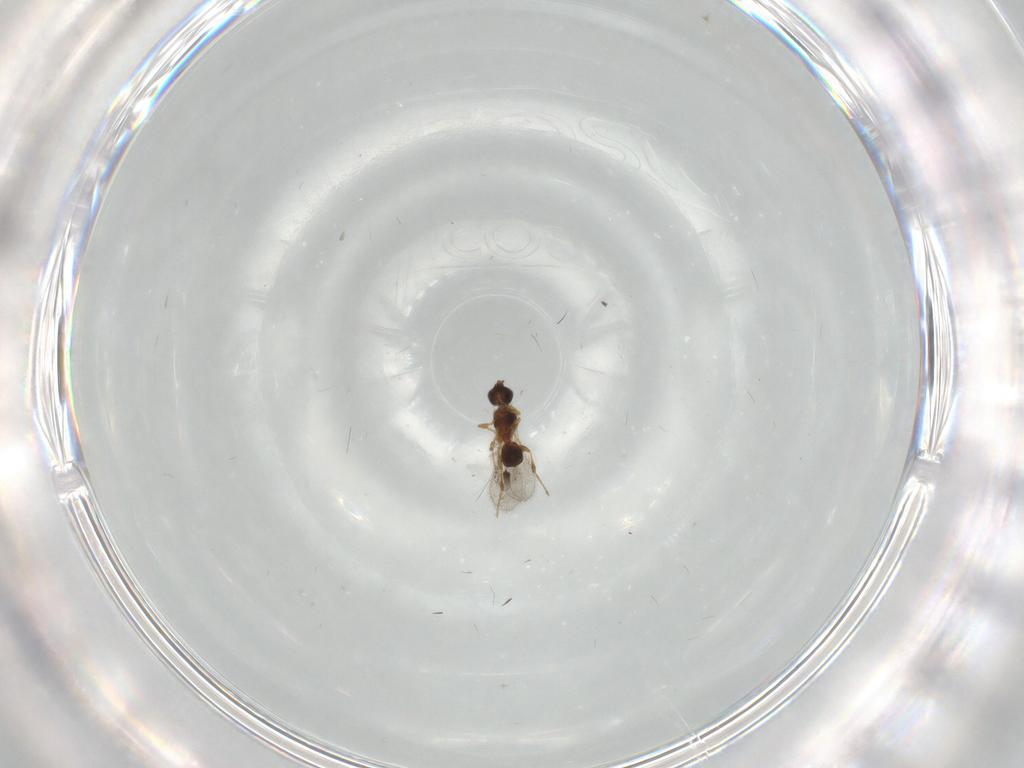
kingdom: Animalia
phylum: Arthropoda
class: Insecta
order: Hymenoptera
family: Diapriidae
